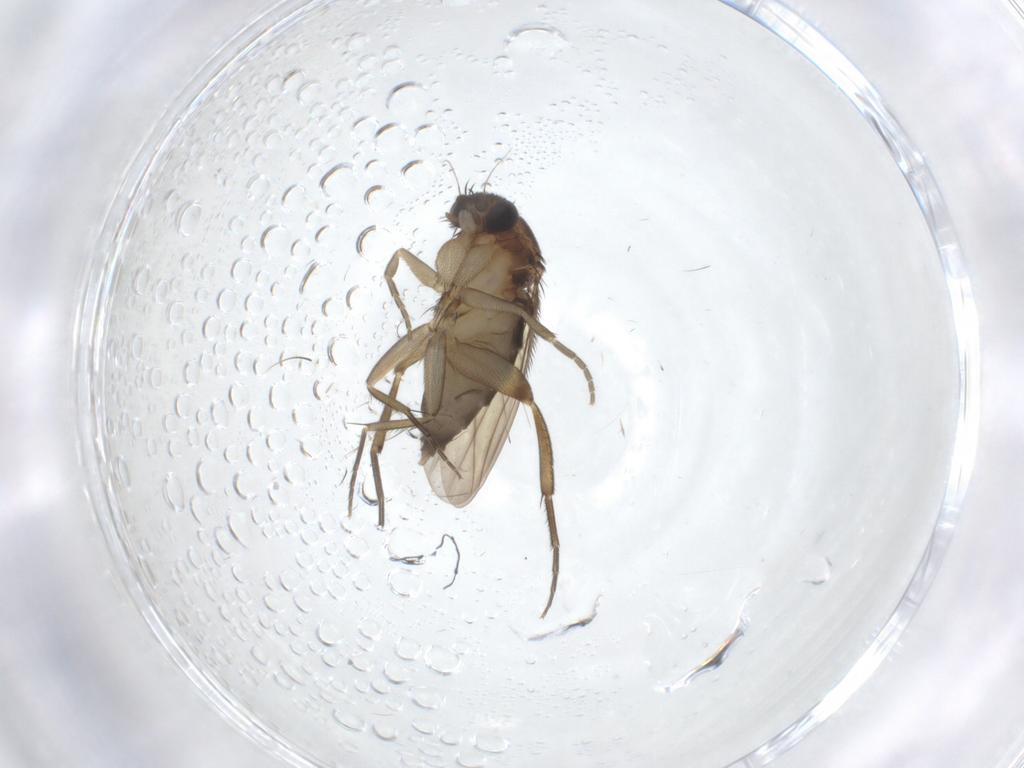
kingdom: Animalia
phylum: Arthropoda
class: Insecta
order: Diptera
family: Phoridae
